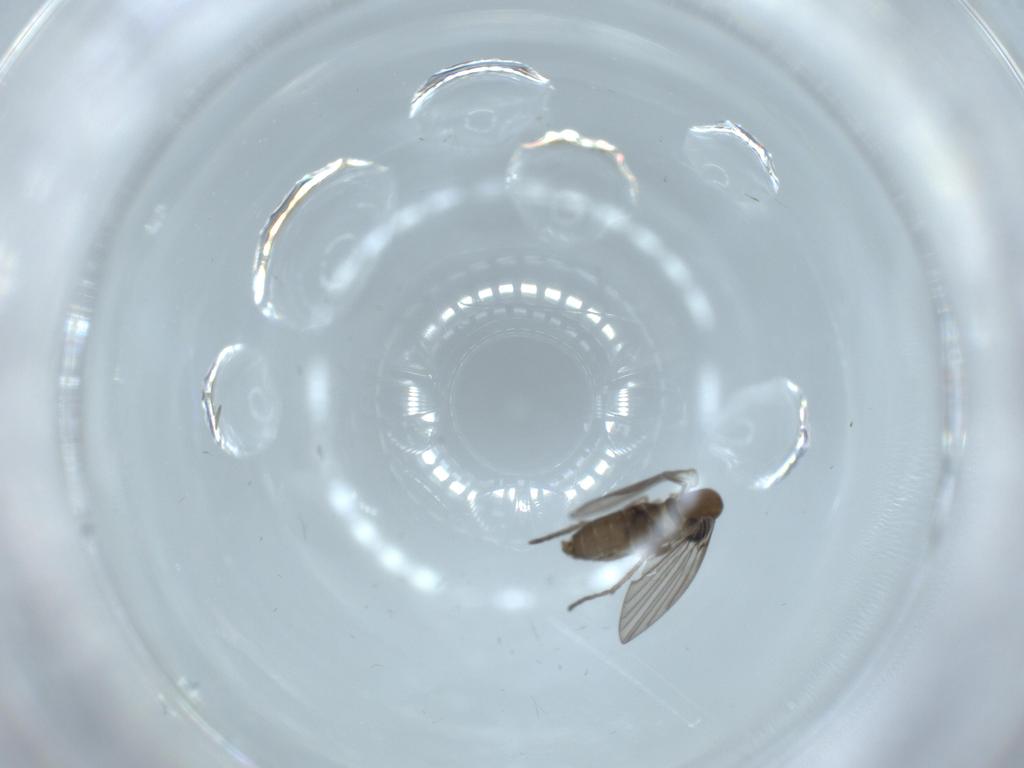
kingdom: Animalia
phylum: Arthropoda
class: Insecta
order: Diptera
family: Psychodidae
